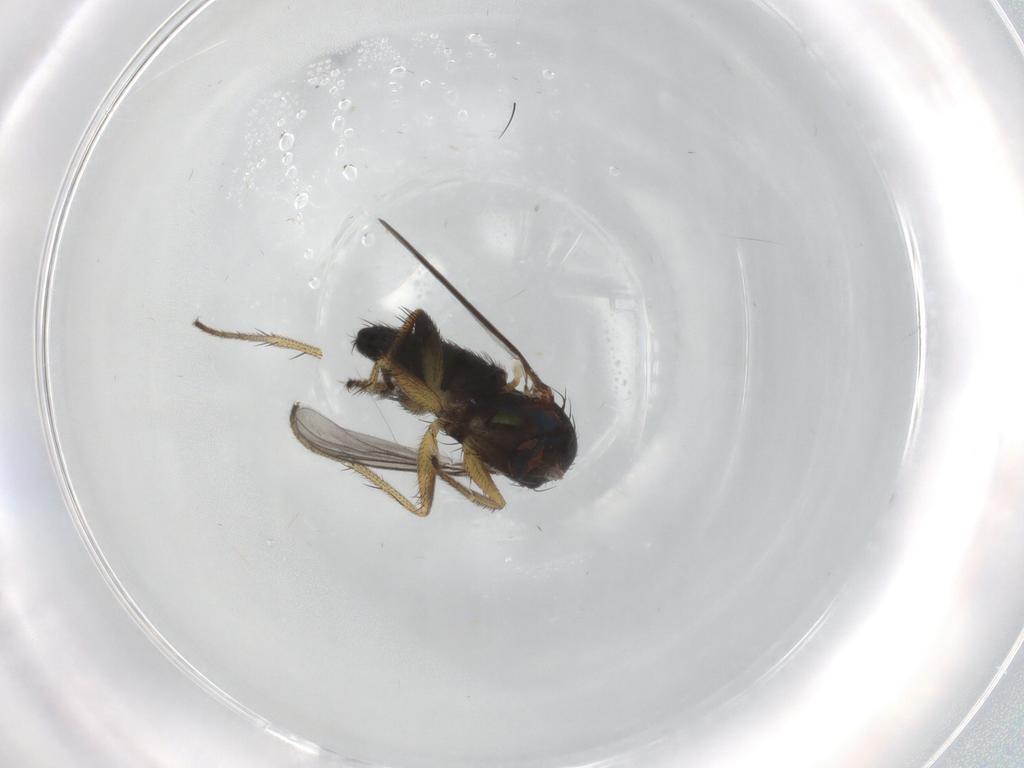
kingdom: Animalia
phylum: Arthropoda
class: Insecta
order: Diptera
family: Dolichopodidae
